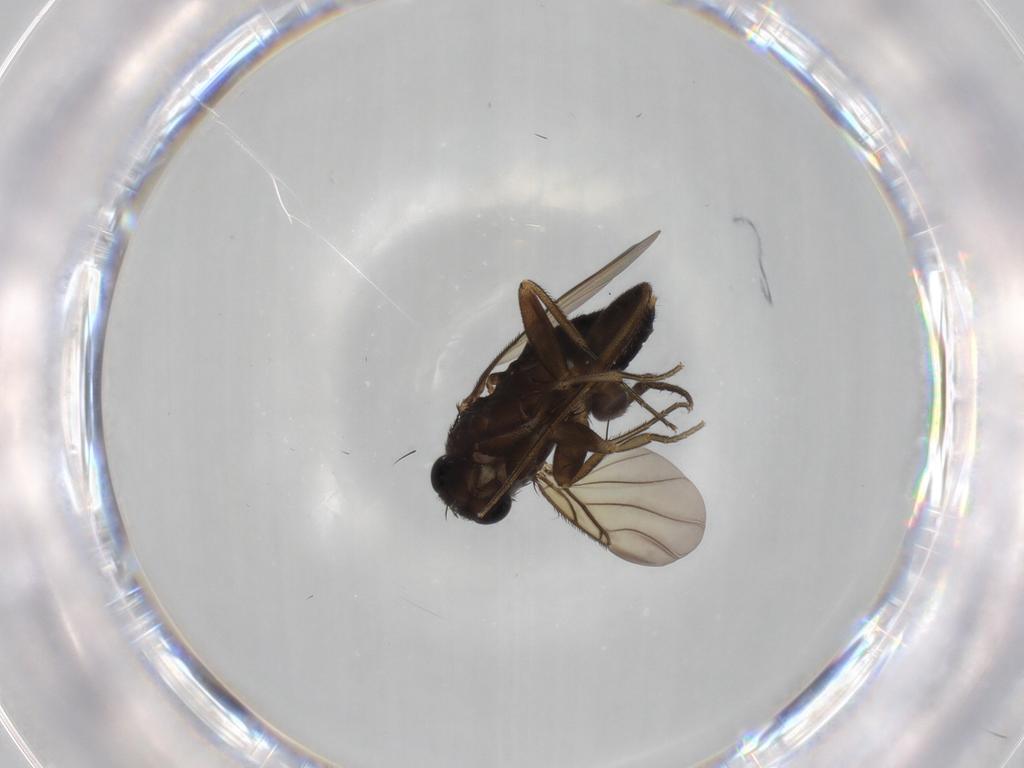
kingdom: Animalia
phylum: Arthropoda
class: Insecta
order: Diptera
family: Phoridae
